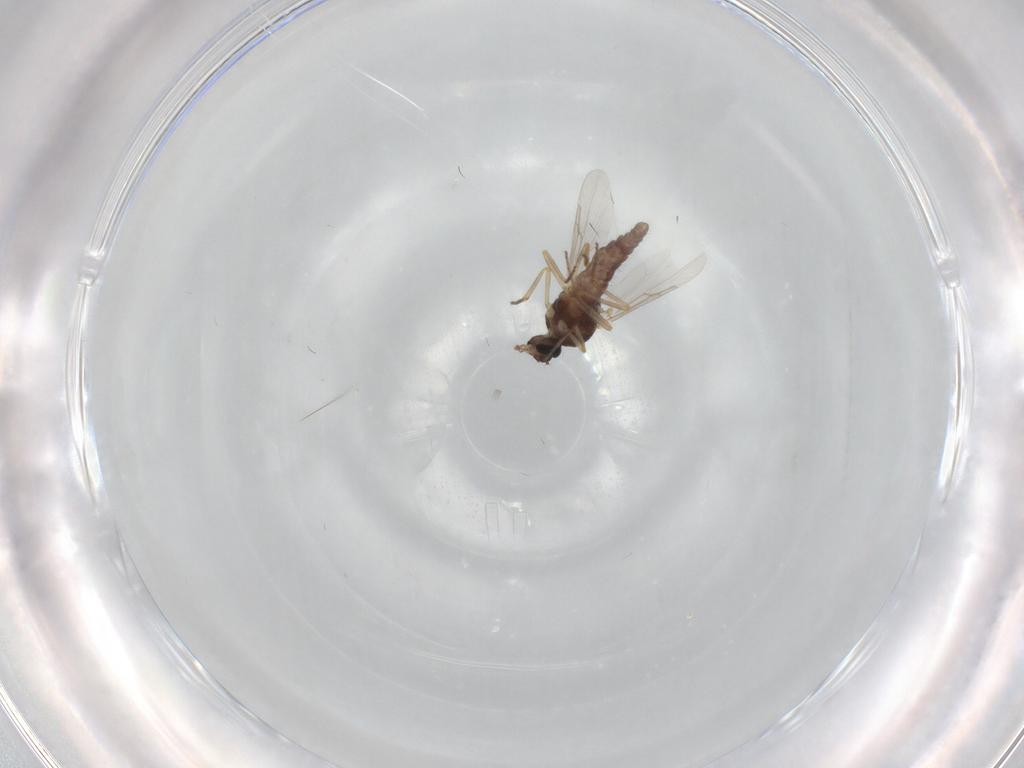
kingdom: Animalia
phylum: Arthropoda
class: Insecta
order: Diptera
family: Ceratopogonidae
